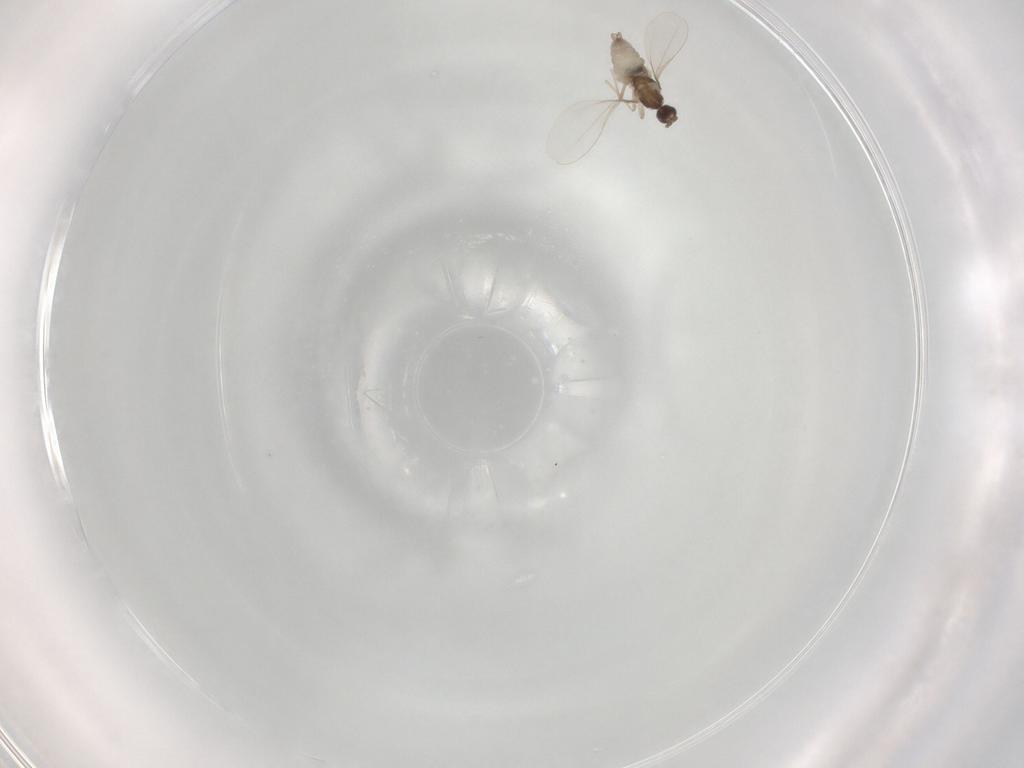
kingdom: Animalia
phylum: Arthropoda
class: Insecta
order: Diptera
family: Cecidomyiidae
